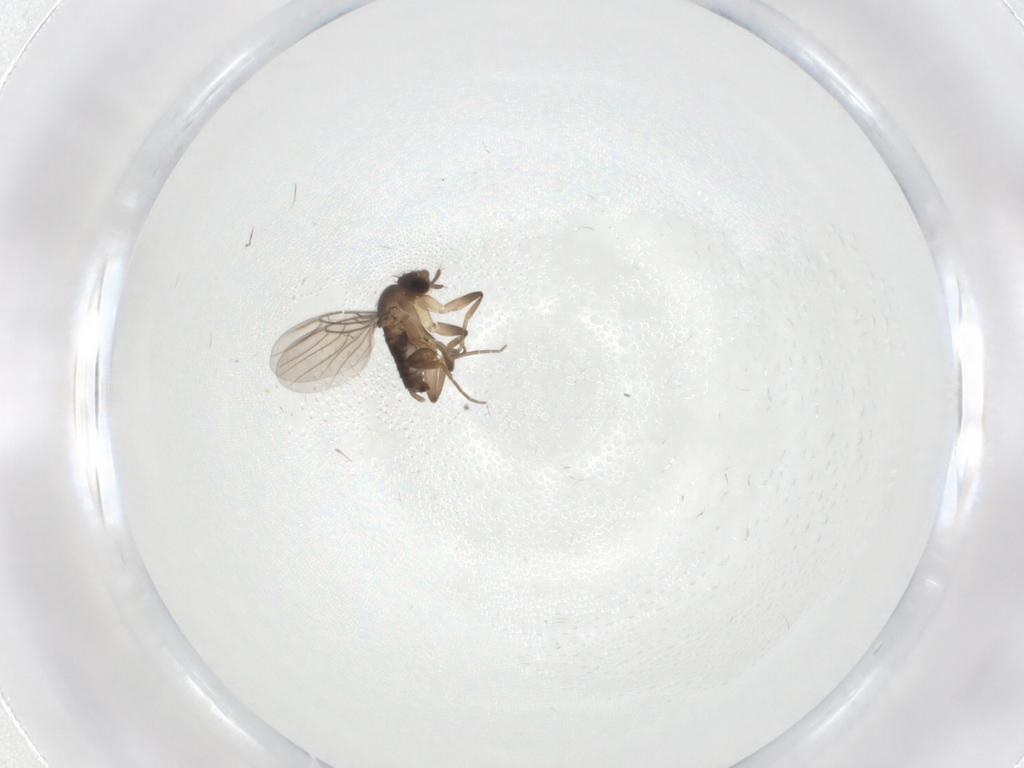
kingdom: Animalia
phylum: Arthropoda
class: Insecta
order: Diptera
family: Phoridae
